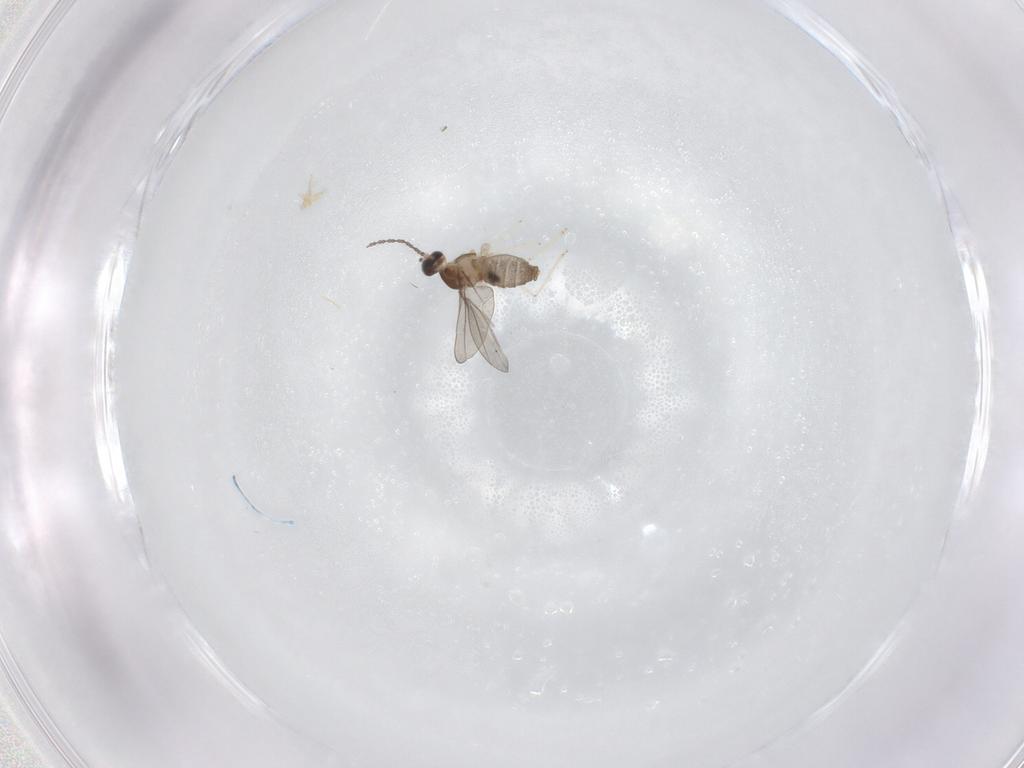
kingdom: Animalia
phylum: Arthropoda
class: Insecta
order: Diptera
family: Cecidomyiidae
